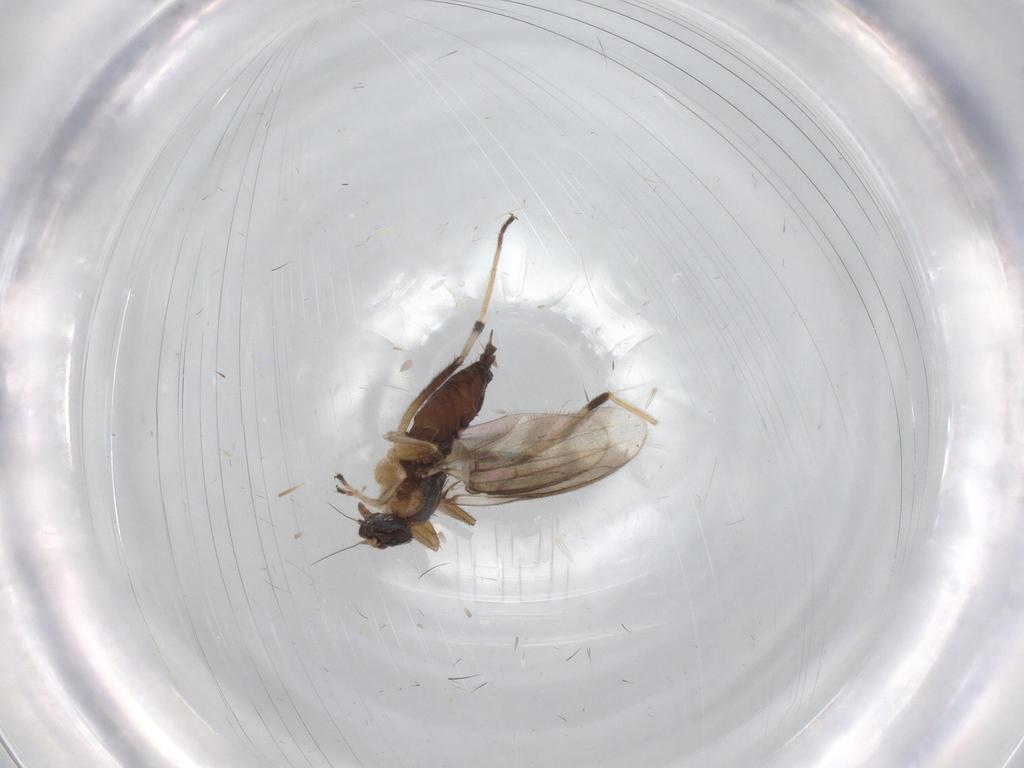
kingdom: Animalia
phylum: Arthropoda
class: Insecta
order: Diptera
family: Hybotidae
